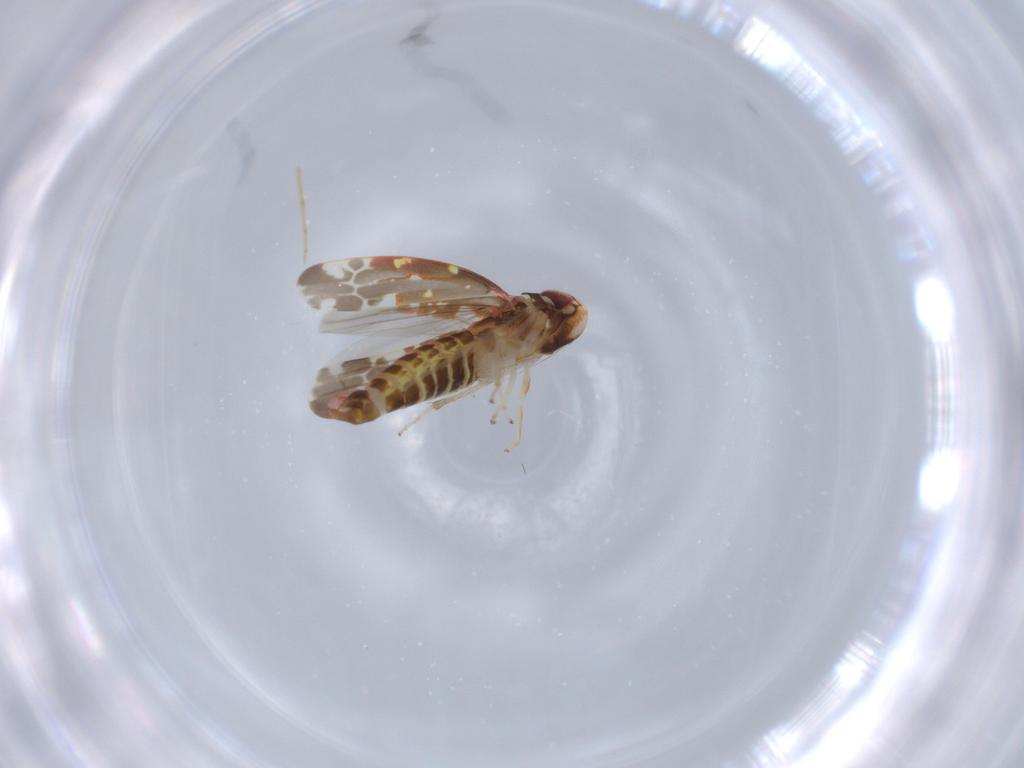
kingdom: Animalia
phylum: Arthropoda
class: Insecta
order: Hemiptera
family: Cicadellidae
